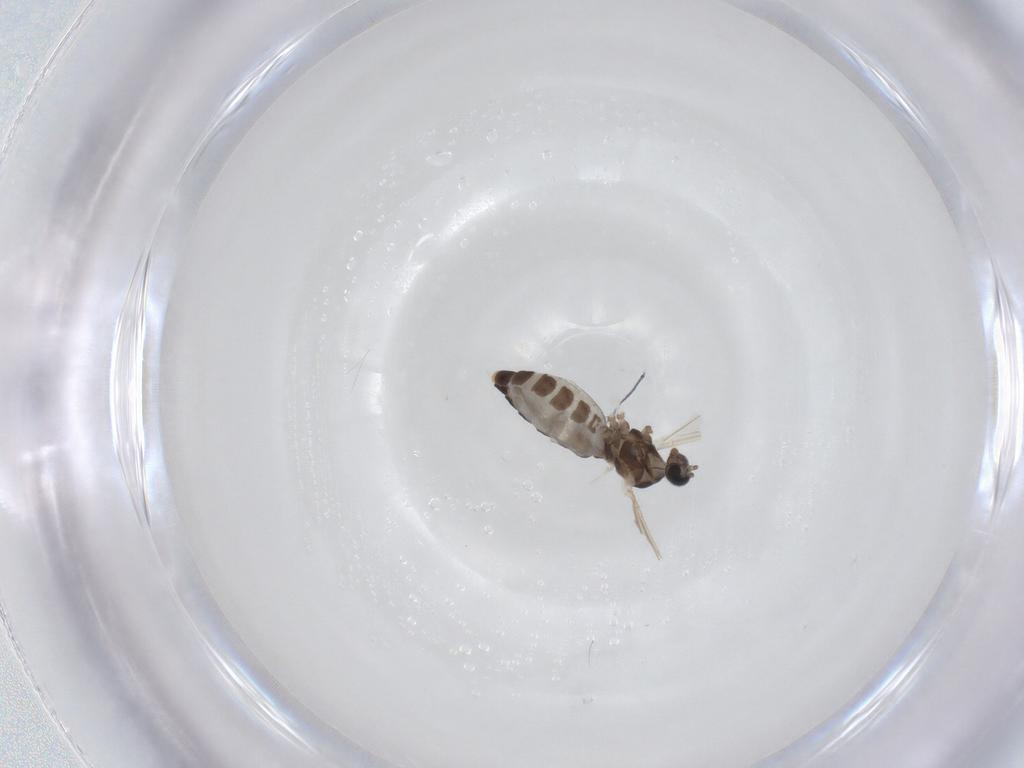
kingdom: Animalia
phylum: Arthropoda
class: Insecta
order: Diptera
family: Cecidomyiidae
